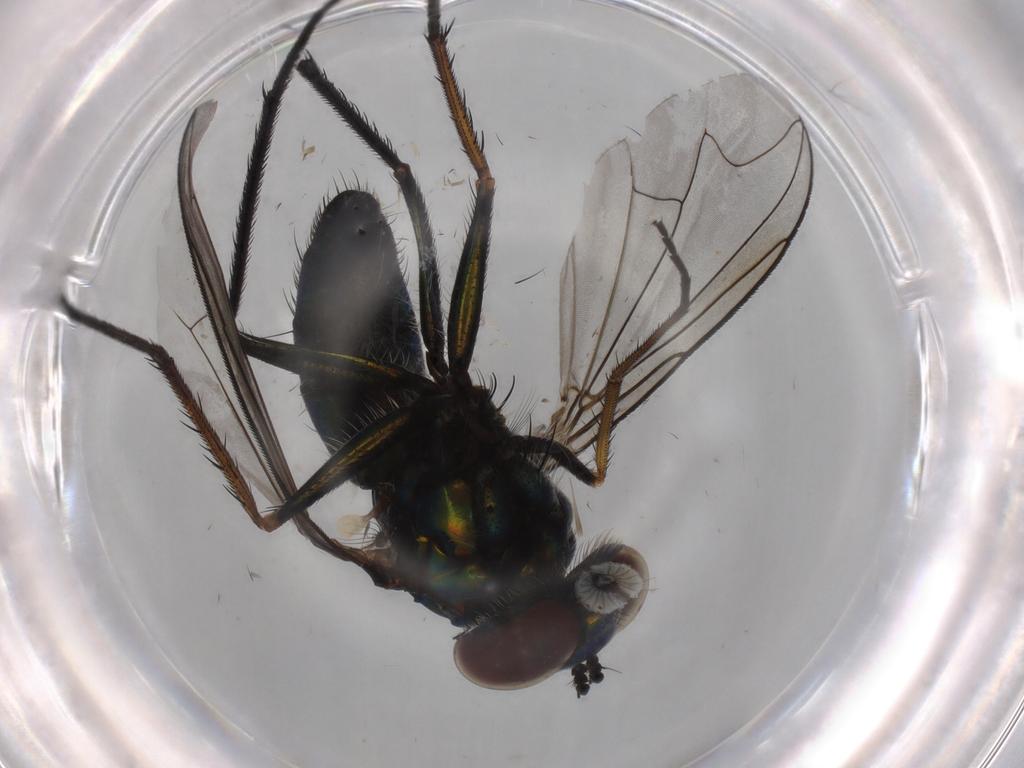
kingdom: Animalia
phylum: Arthropoda
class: Insecta
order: Diptera
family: Dolichopodidae
